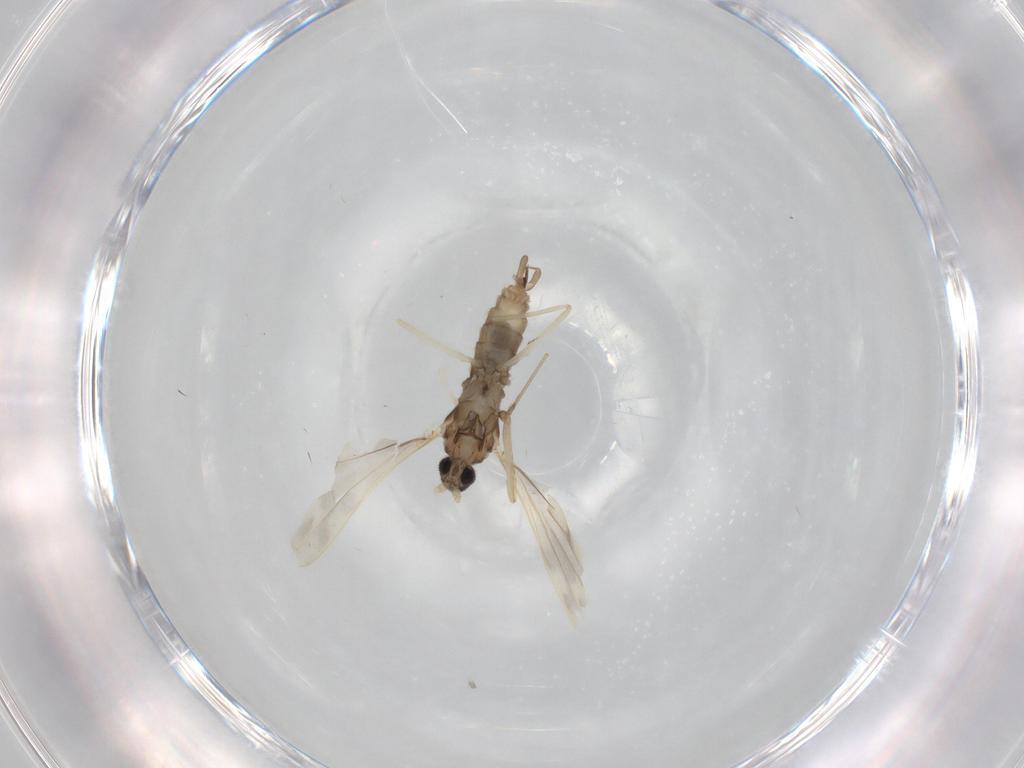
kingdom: Animalia
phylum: Arthropoda
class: Insecta
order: Diptera
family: Cecidomyiidae
